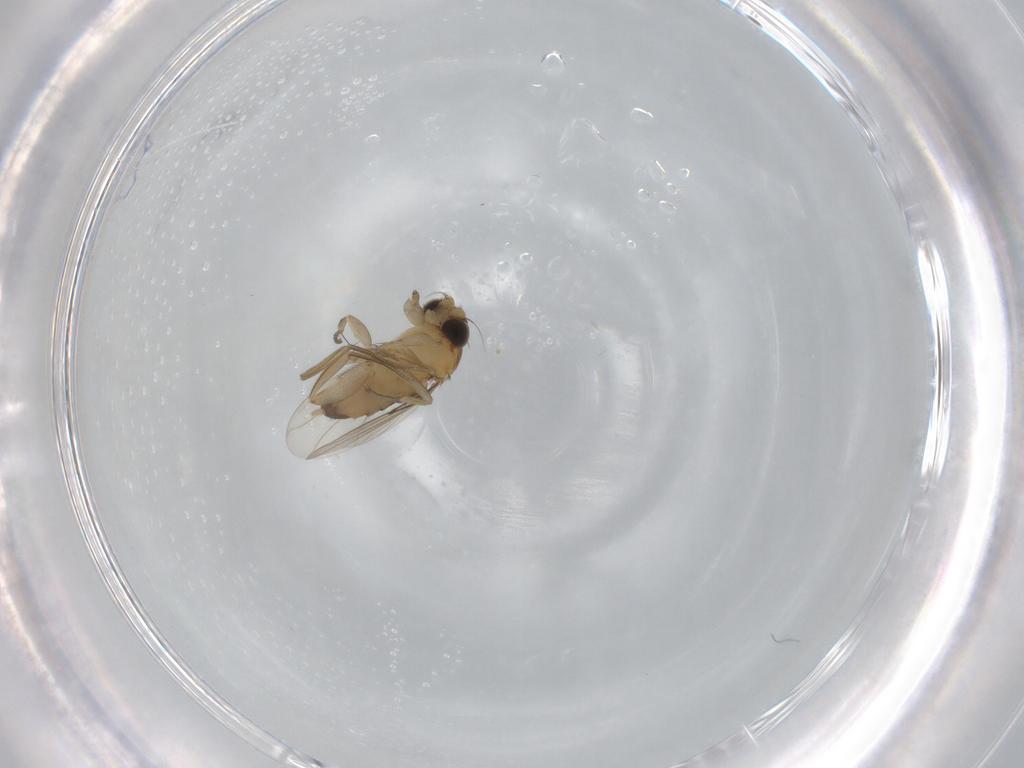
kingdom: Animalia
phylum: Arthropoda
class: Insecta
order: Diptera
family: Phoridae
